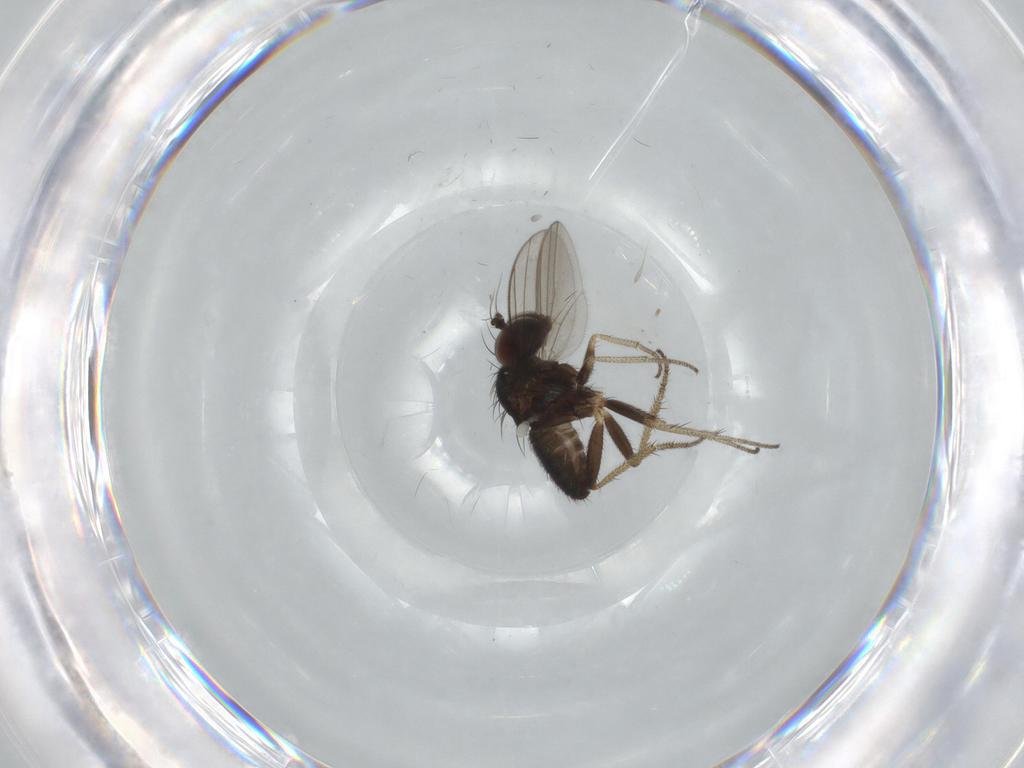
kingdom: Animalia
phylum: Arthropoda
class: Insecta
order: Diptera
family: Dolichopodidae
